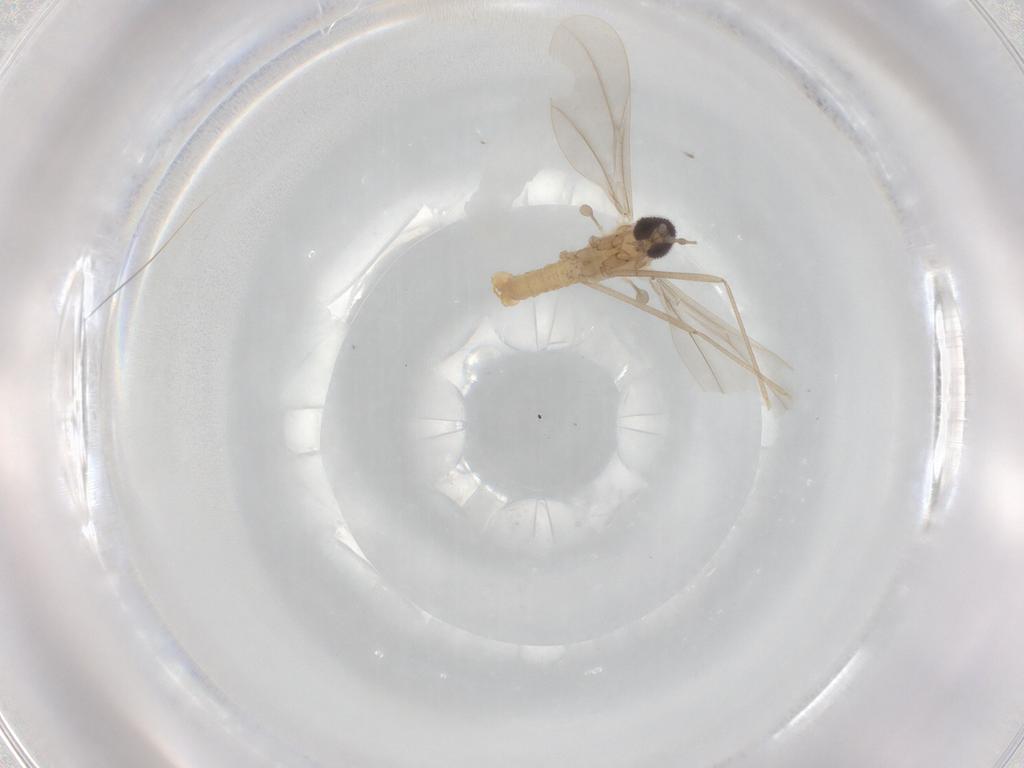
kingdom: Animalia
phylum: Arthropoda
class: Insecta
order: Diptera
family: Cecidomyiidae
